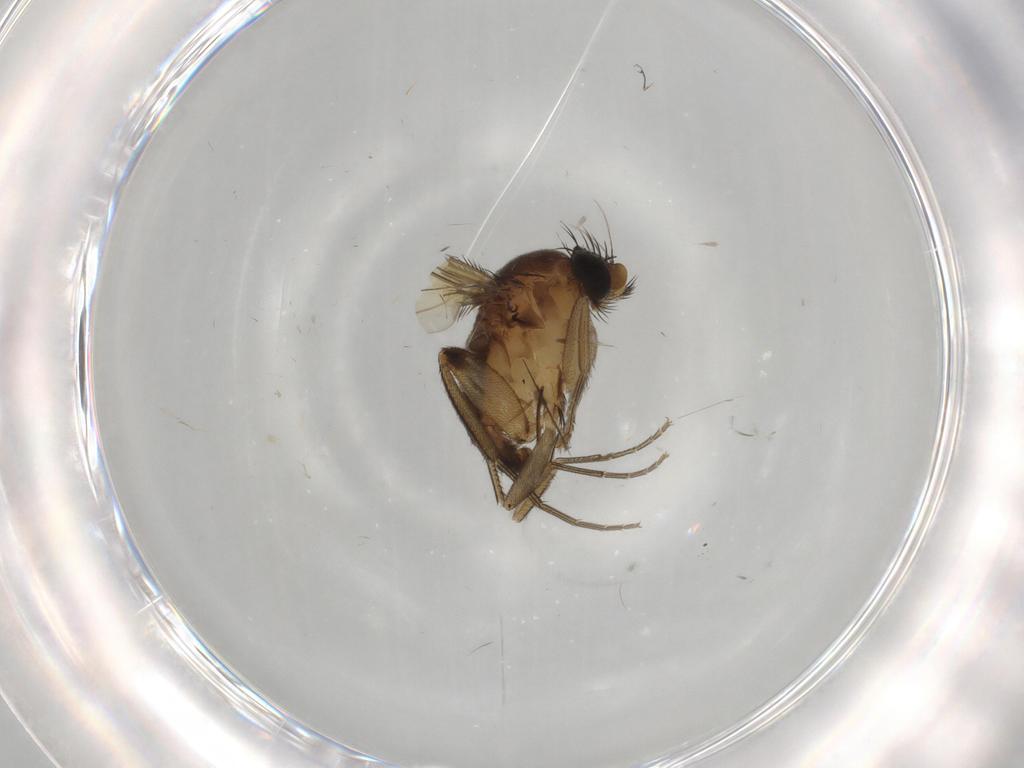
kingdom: Animalia
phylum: Arthropoda
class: Insecta
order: Diptera
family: Phoridae
